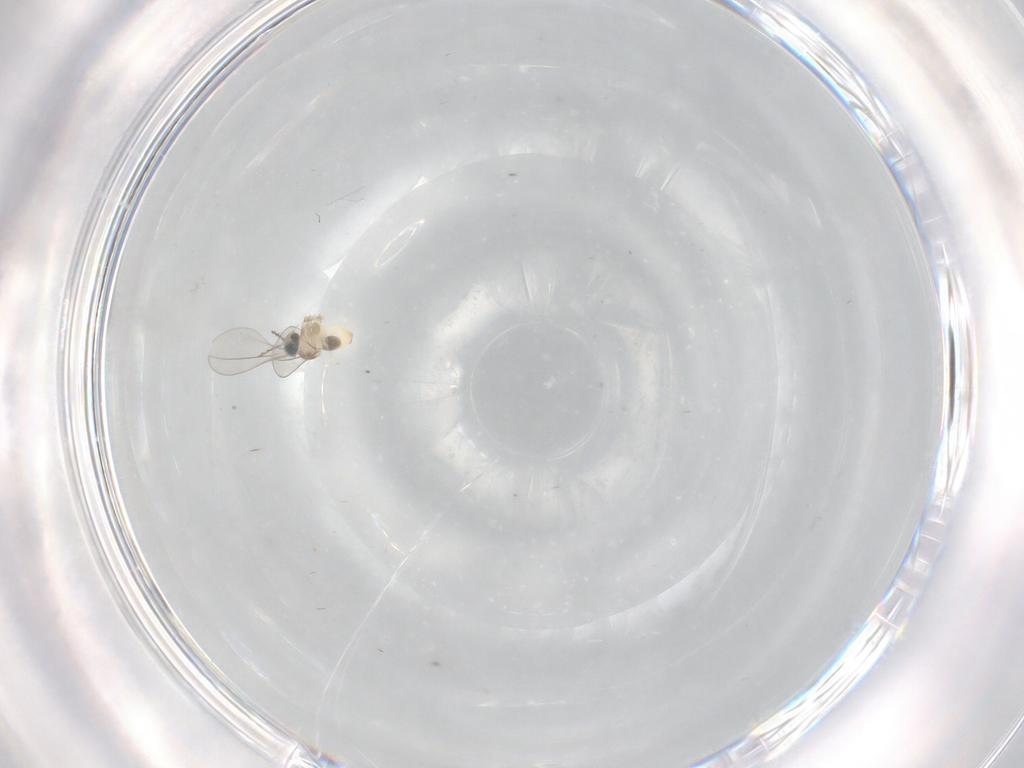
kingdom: Animalia
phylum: Arthropoda
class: Insecta
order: Diptera
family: Cecidomyiidae
